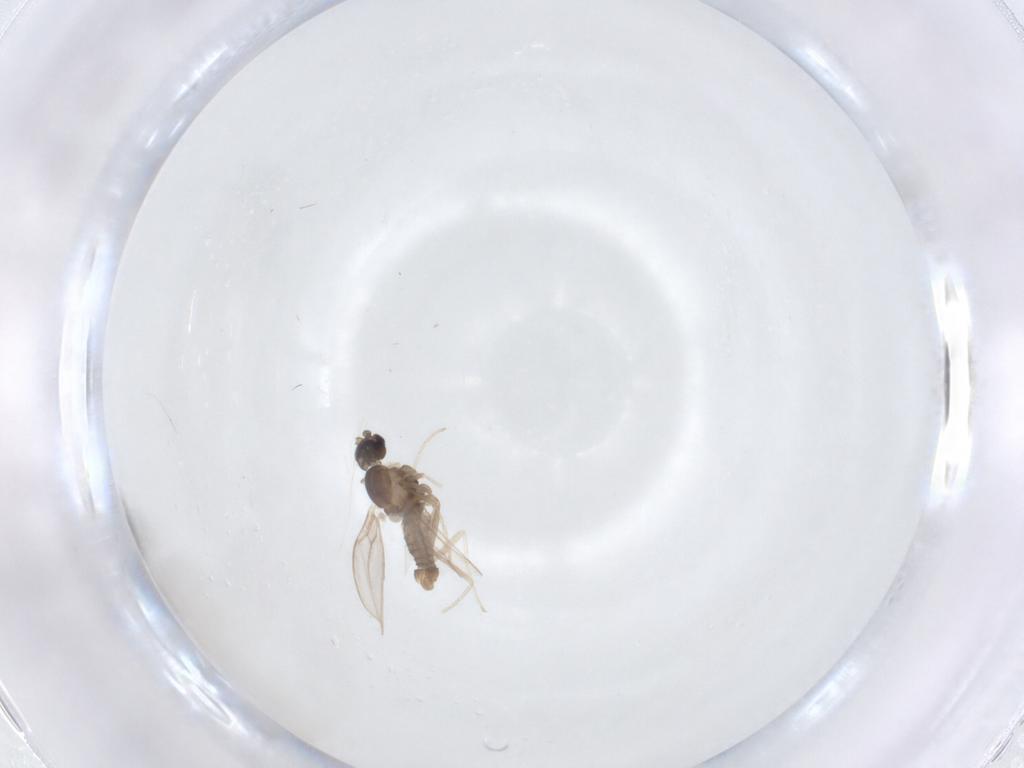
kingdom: Animalia
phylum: Arthropoda
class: Insecta
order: Diptera
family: Cecidomyiidae
